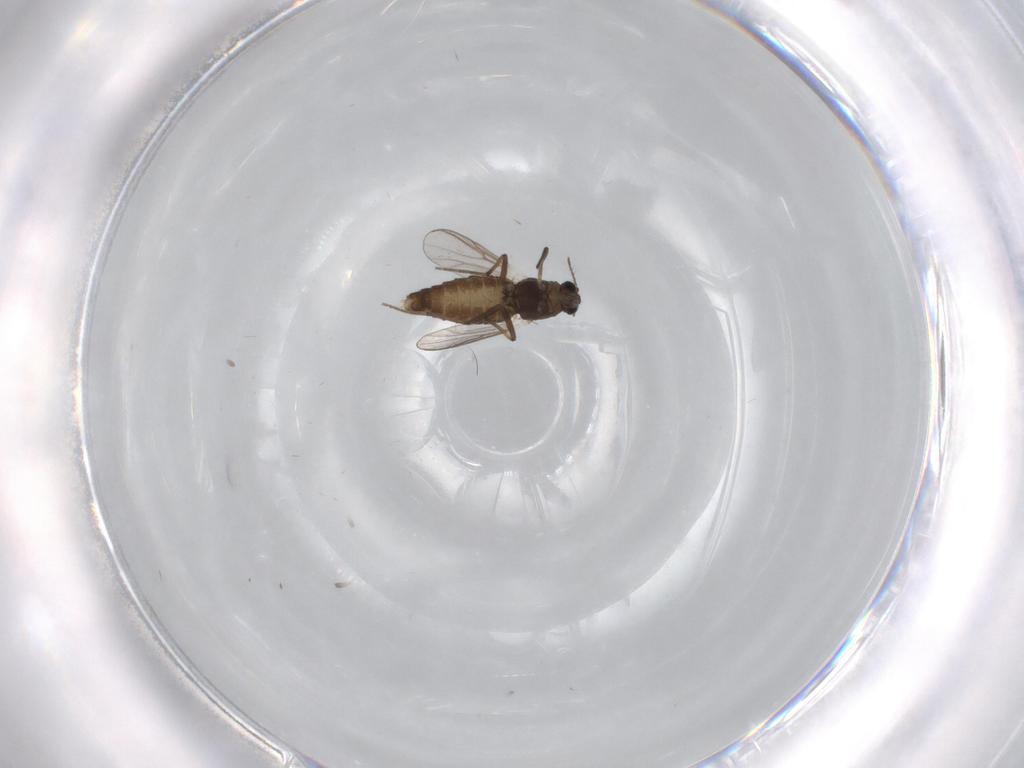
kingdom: Animalia
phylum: Arthropoda
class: Insecta
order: Diptera
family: Chironomidae
